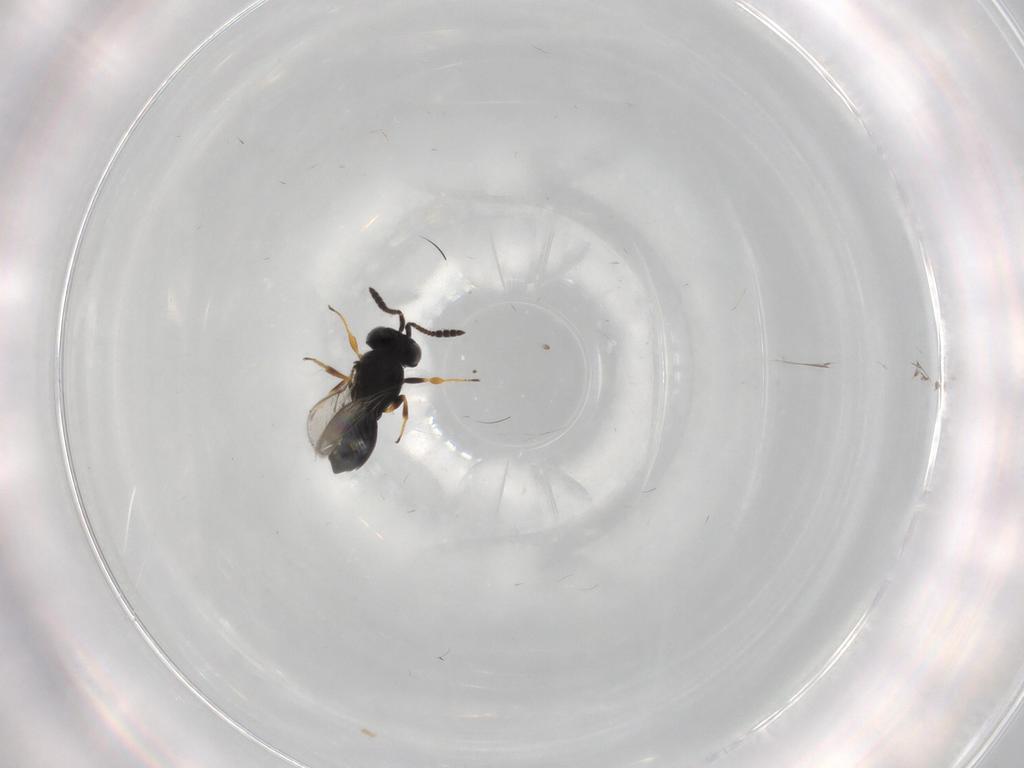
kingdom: Animalia
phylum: Arthropoda
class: Insecta
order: Hymenoptera
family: Scelionidae
